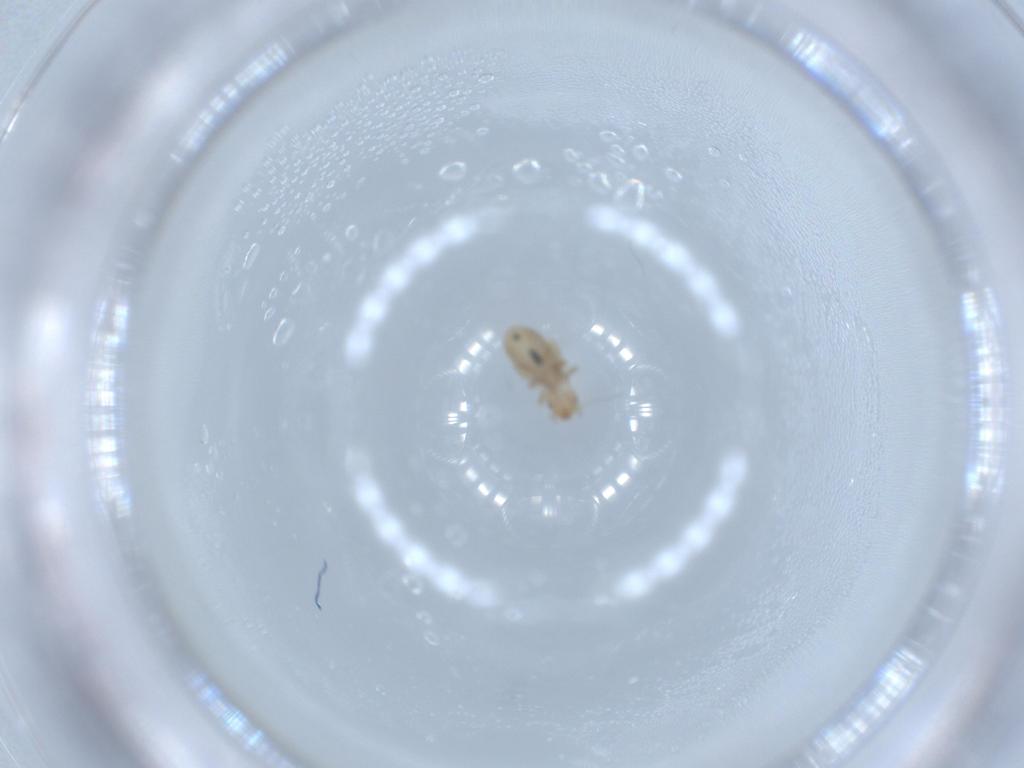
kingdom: Animalia
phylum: Arthropoda
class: Insecta
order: Psocodea
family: Liposcelididae
